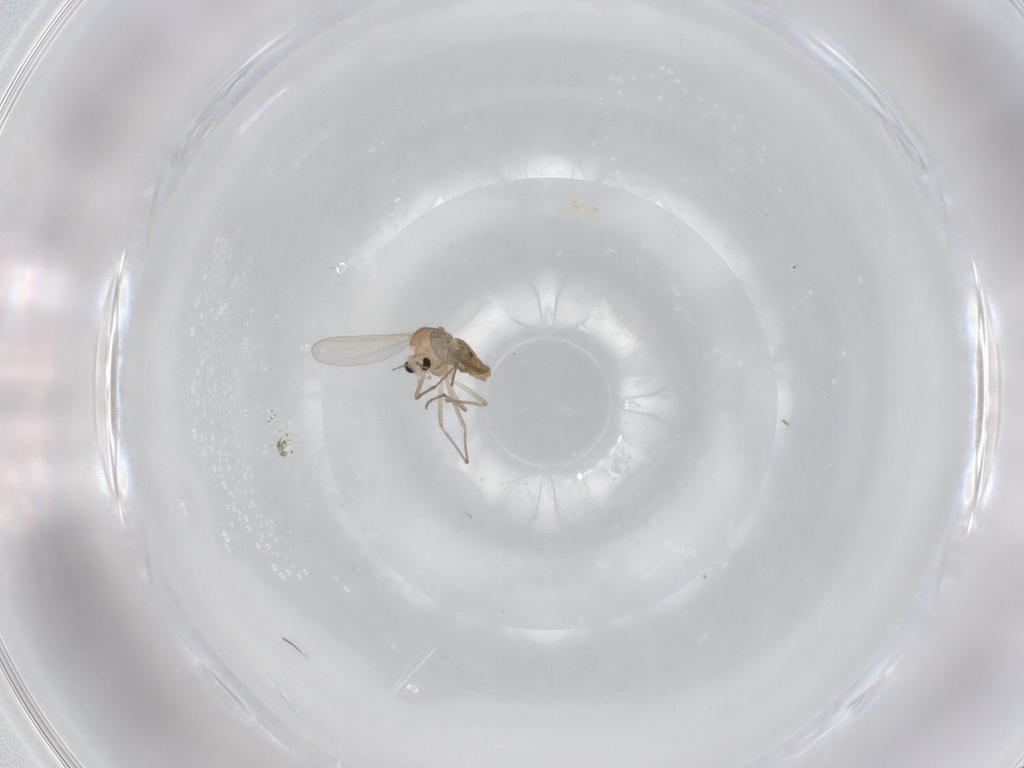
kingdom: Animalia
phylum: Arthropoda
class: Insecta
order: Diptera
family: Chironomidae
